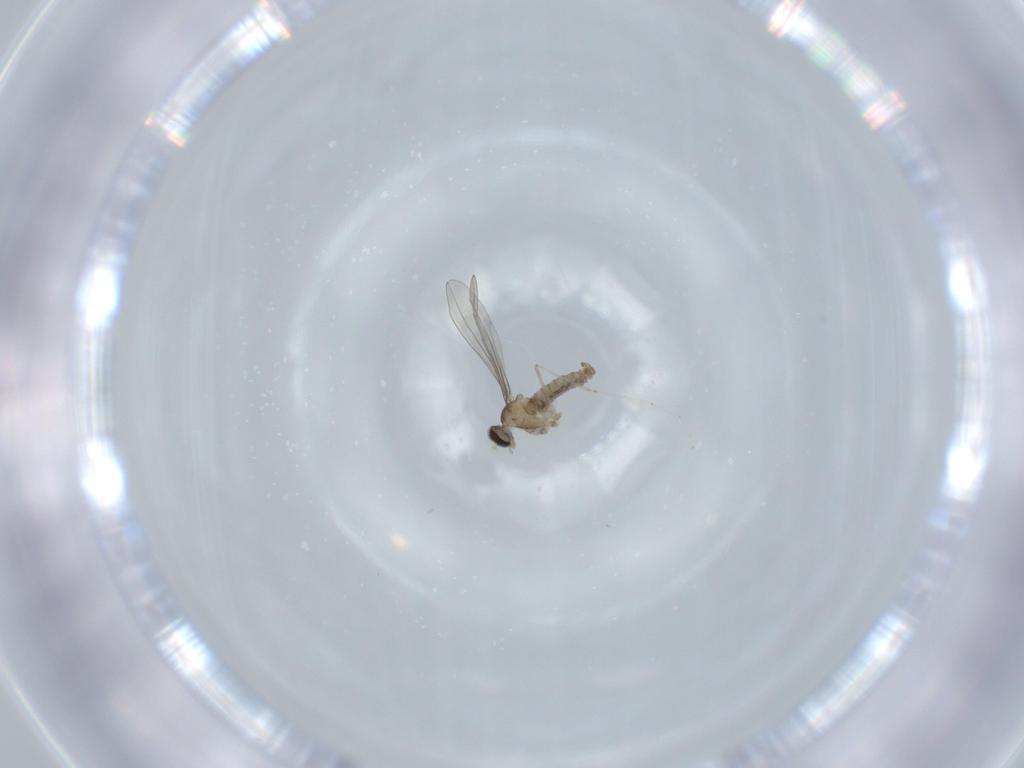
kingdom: Animalia
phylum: Arthropoda
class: Insecta
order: Diptera
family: Cecidomyiidae
